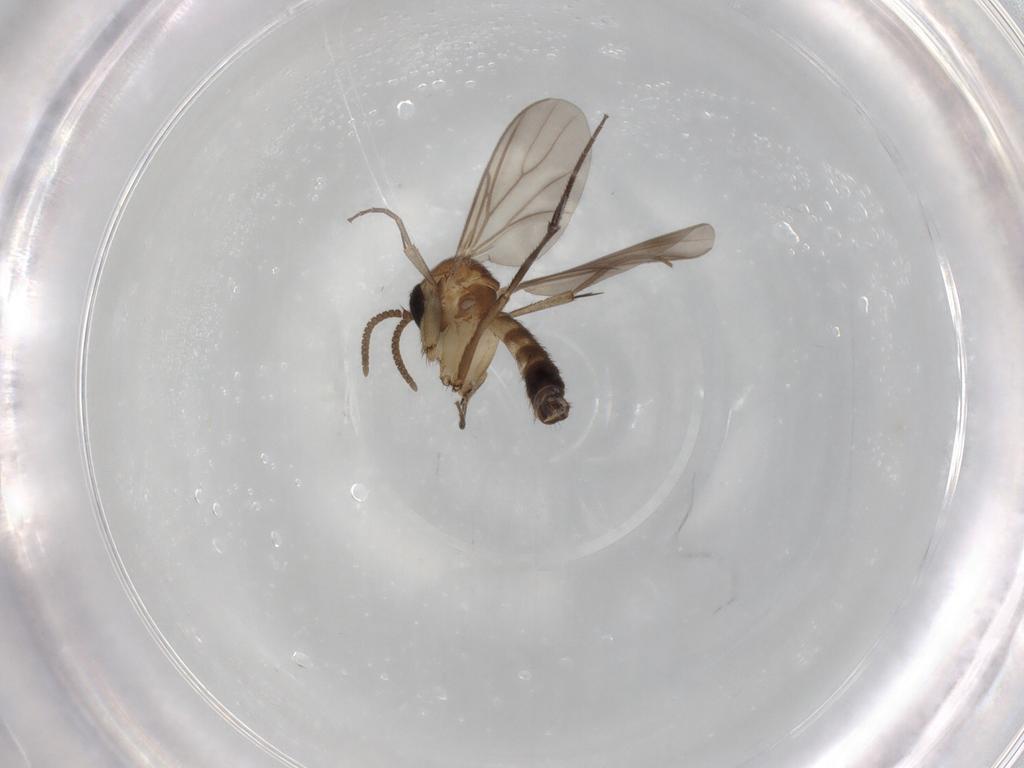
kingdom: Animalia
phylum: Arthropoda
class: Insecta
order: Diptera
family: Mycetophilidae
